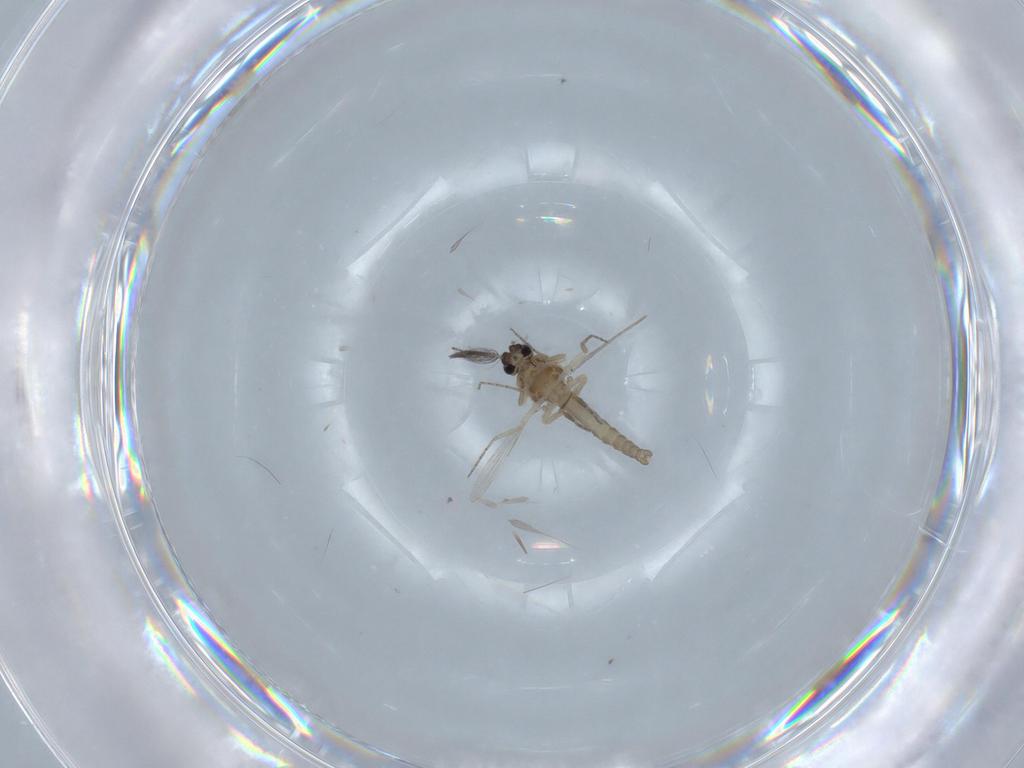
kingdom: Animalia
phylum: Arthropoda
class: Insecta
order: Diptera
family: Ceratopogonidae
